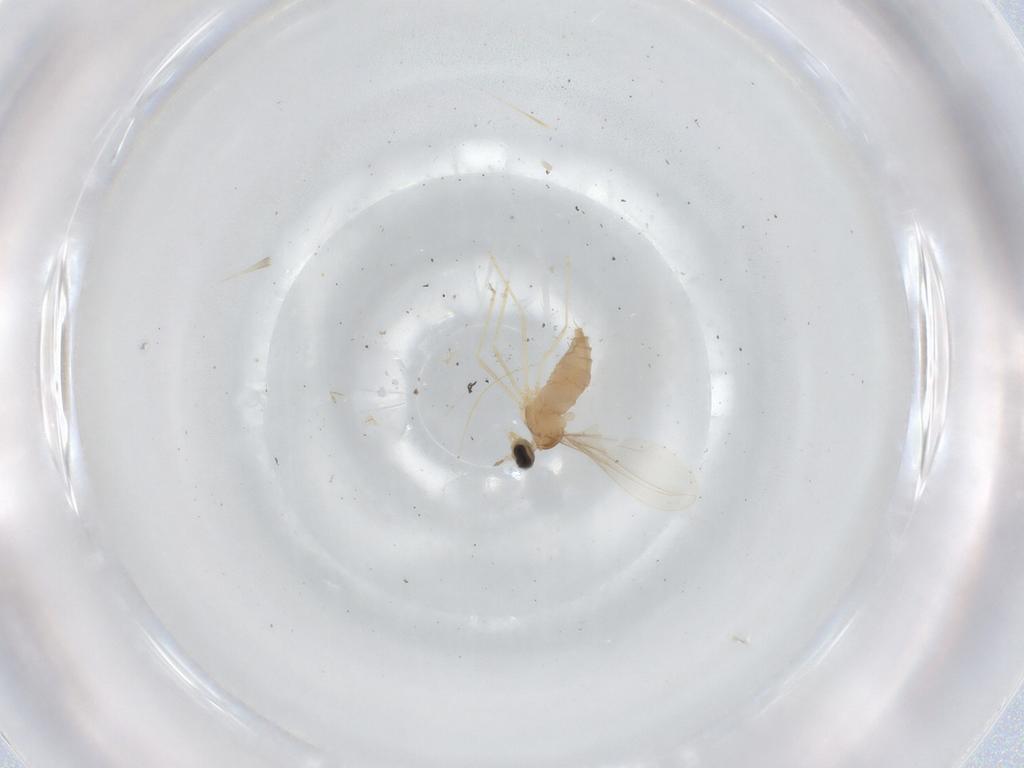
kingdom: Animalia
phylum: Arthropoda
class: Insecta
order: Diptera
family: Cecidomyiidae
